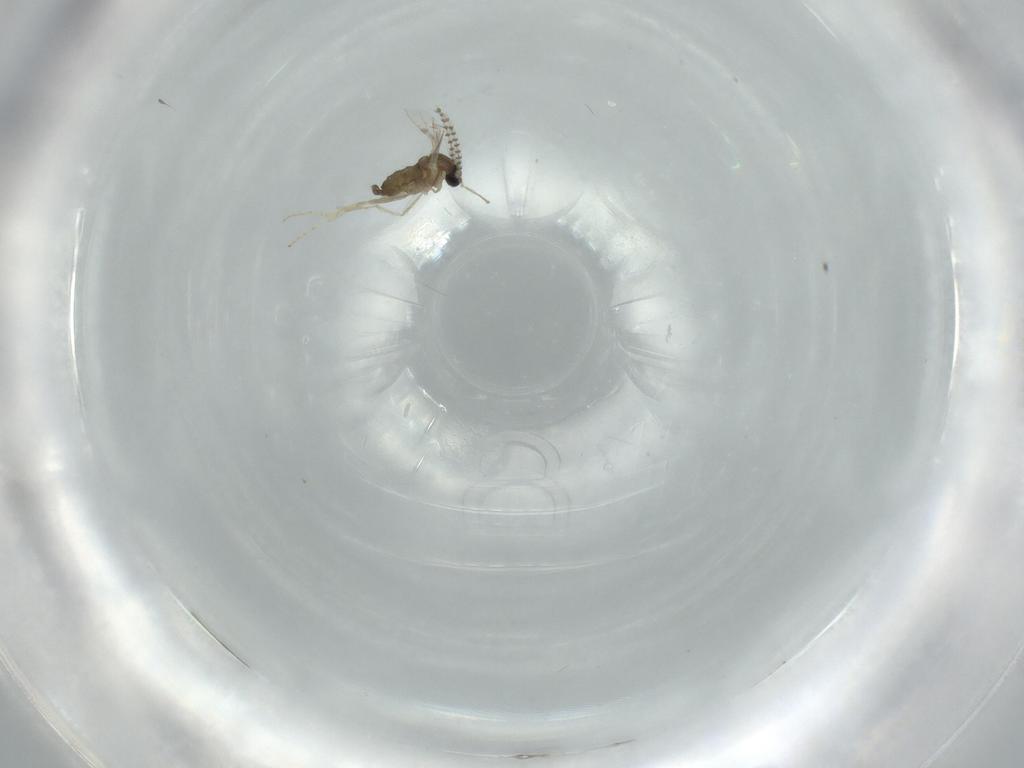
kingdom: Animalia
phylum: Arthropoda
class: Insecta
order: Diptera
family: Cecidomyiidae
